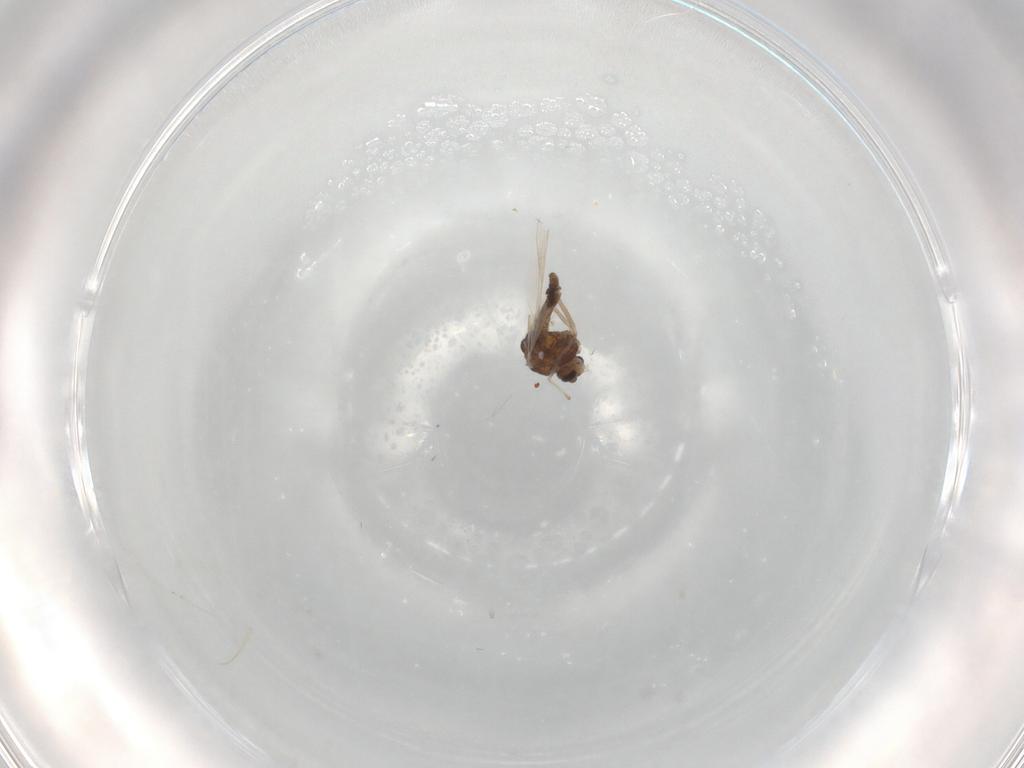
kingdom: Animalia
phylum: Arthropoda
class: Insecta
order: Diptera
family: Cecidomyiidae
